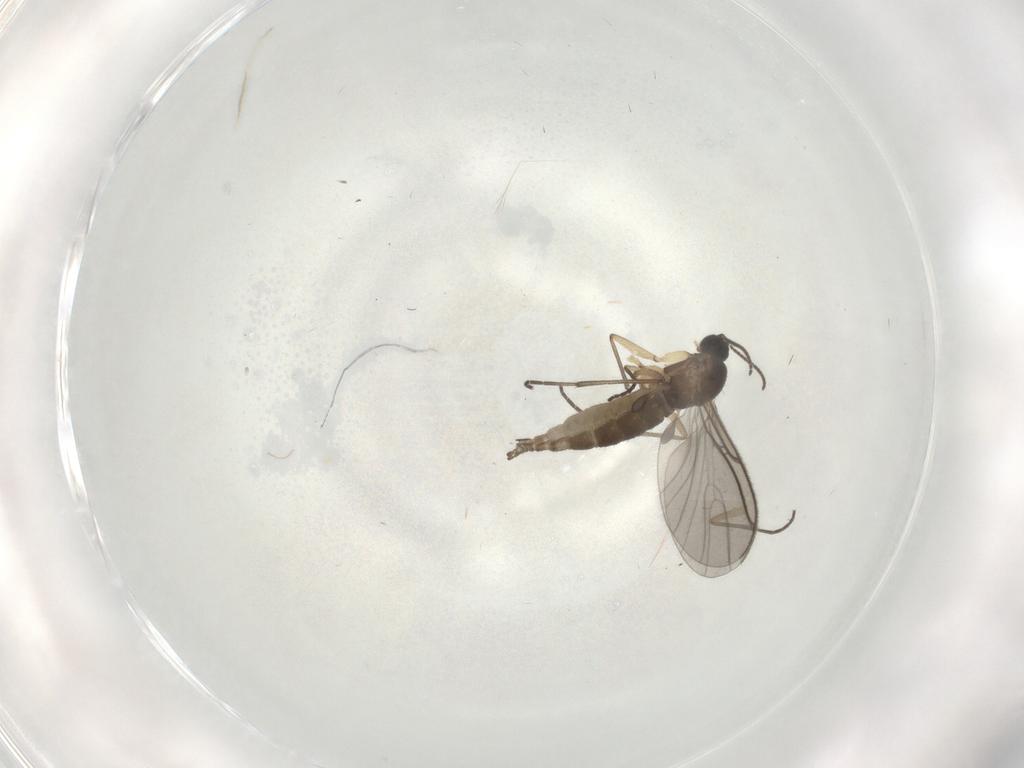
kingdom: Animalia
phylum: Arthropoda
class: Insecta
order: Diptera
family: Sciaridae
